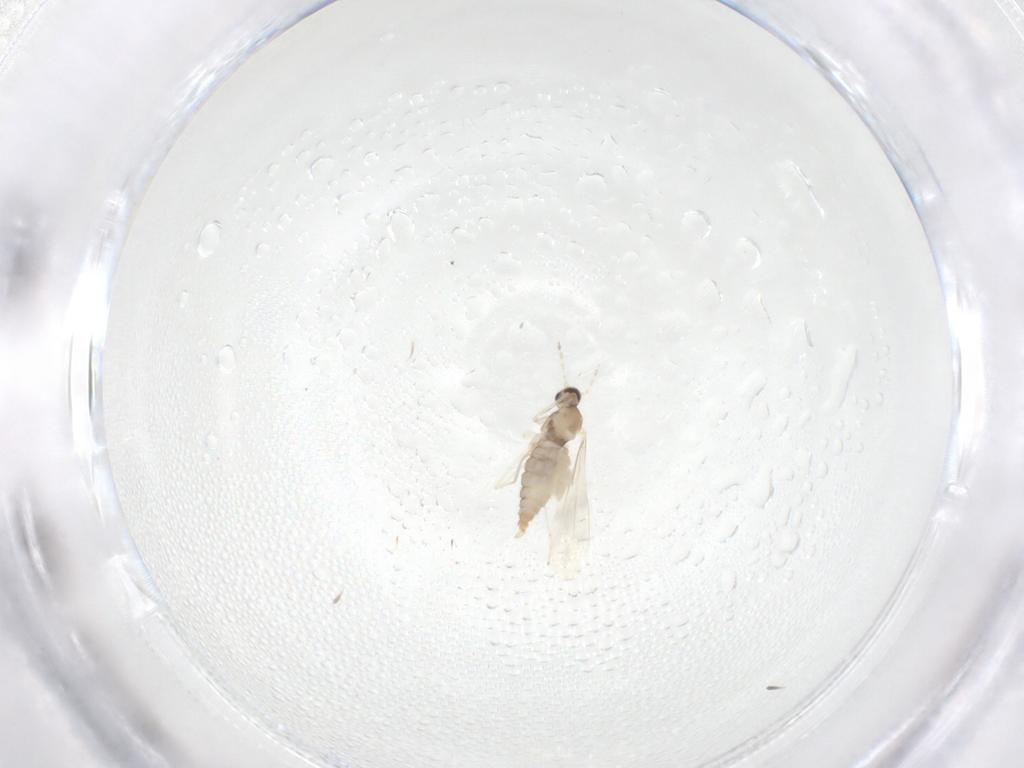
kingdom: Animalia
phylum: Arthropoda
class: Insecta
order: Diptera
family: Cecidomyiidae
